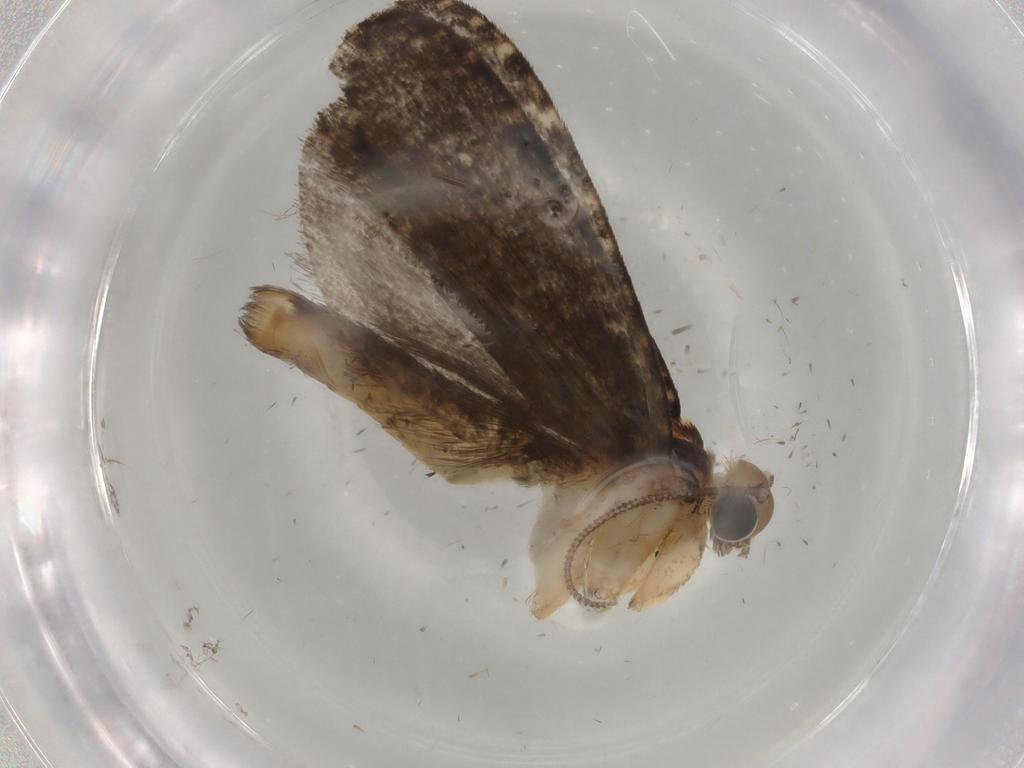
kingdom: Animalia
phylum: Arthropoda
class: Insecta
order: Lepidoptera
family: Tineidae
